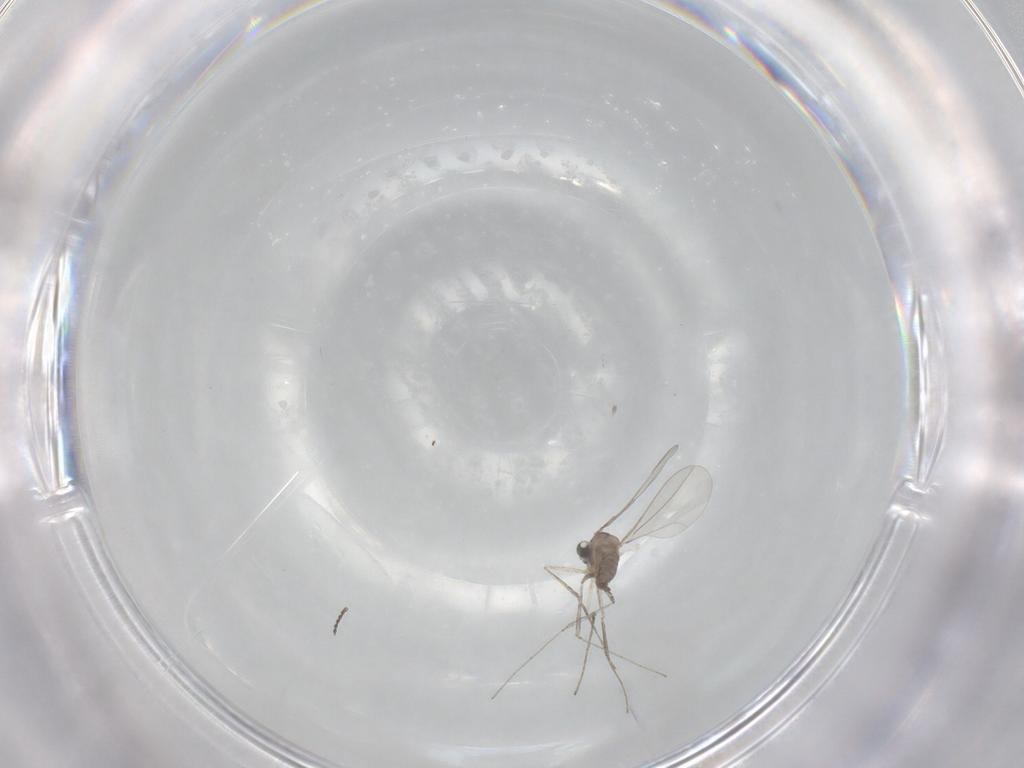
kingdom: Animalia
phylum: Arthropoda
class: Insecta
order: Diptera
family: Cecidomyiidae
